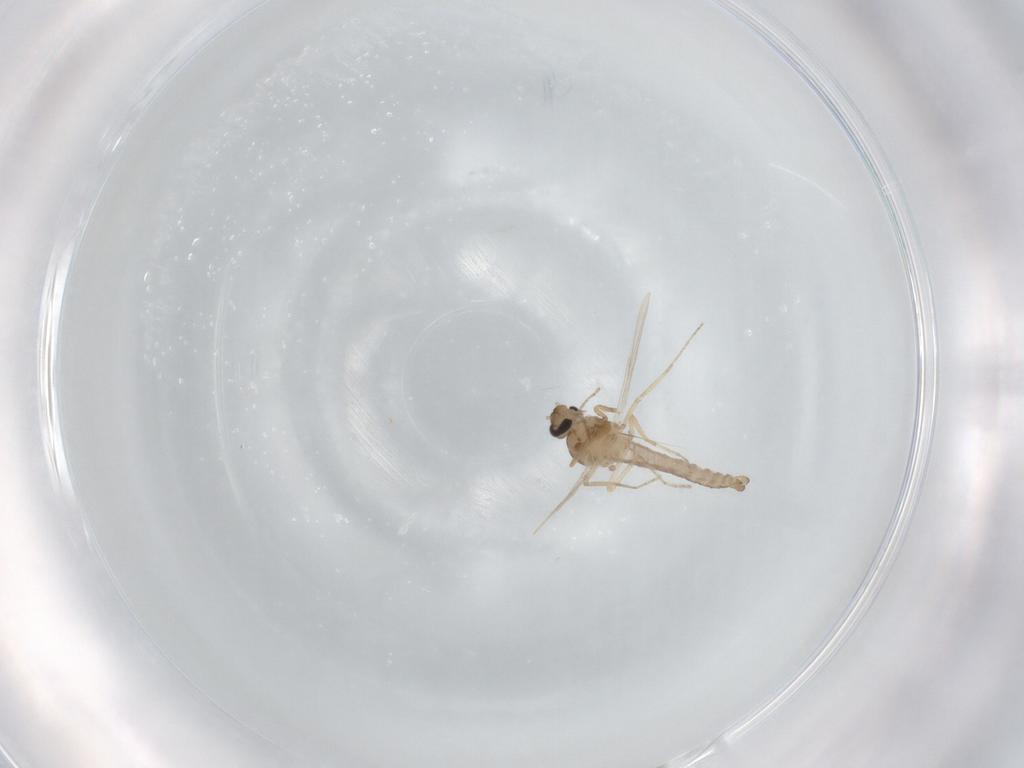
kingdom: Animalia
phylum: Arthropoda
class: Insecta
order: Diptera
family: Ceratopogonidae
